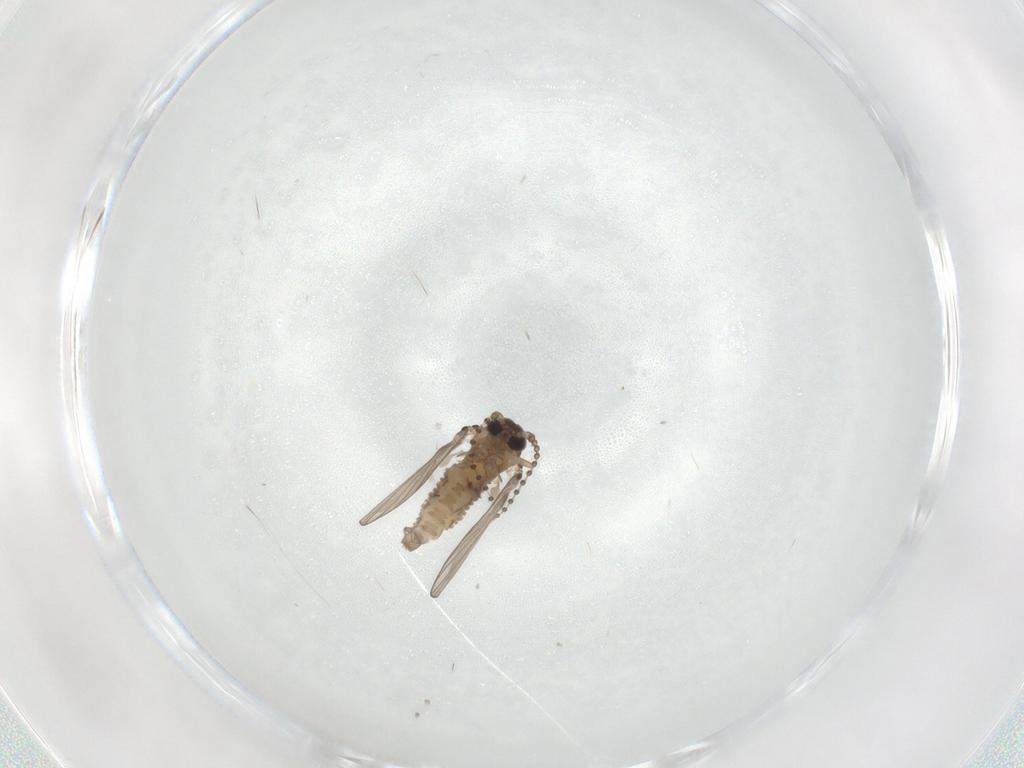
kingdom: Animalia
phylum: Arthropoda
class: Insecta
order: Diptera
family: Psychodidae
